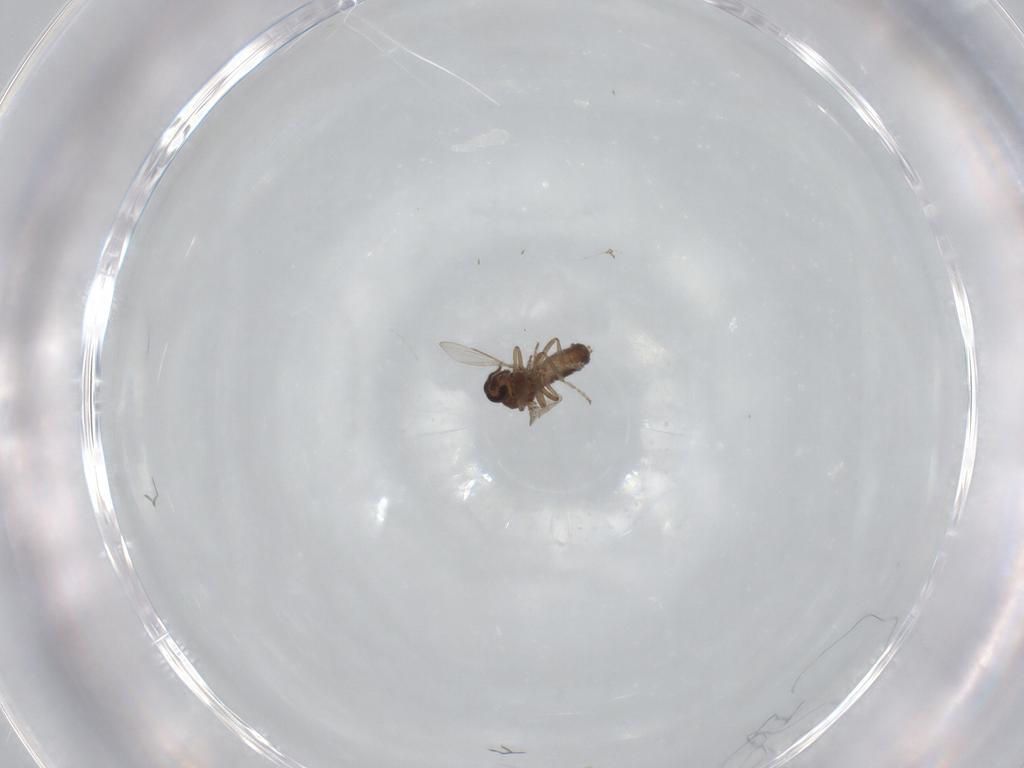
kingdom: Animalia
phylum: Arthropoda
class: Insecta
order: Diptera
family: Ceratopogonidae
